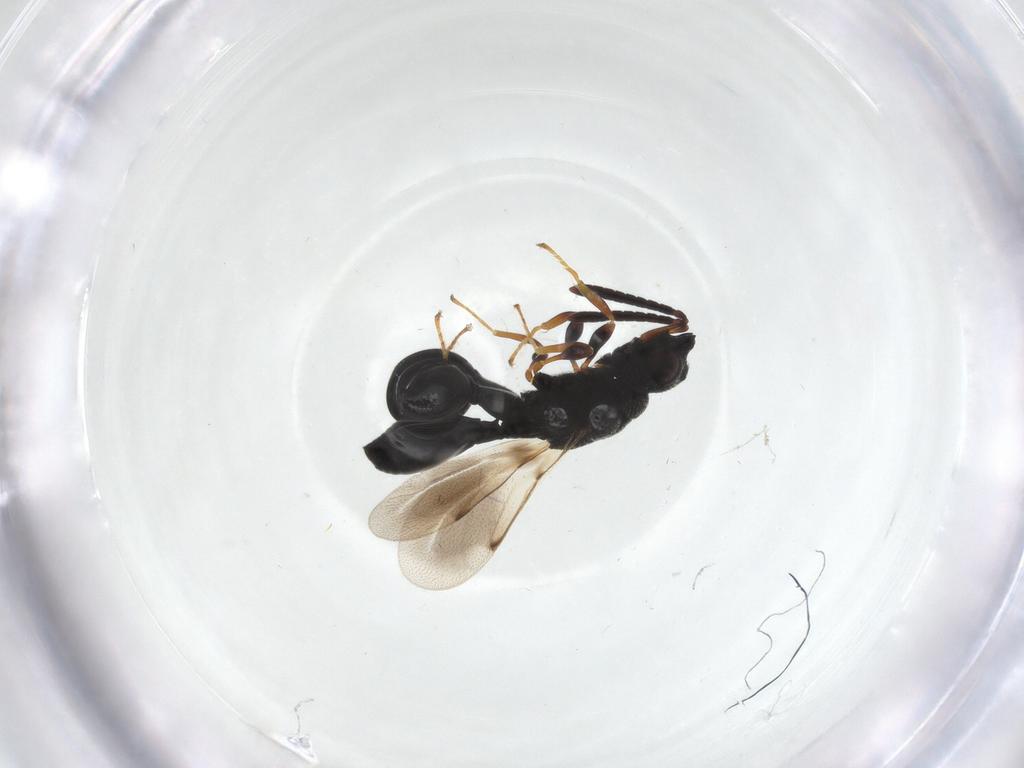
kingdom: Animalia
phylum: Arthropoda
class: Insecta
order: Hymenoptera
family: Chalcididae
